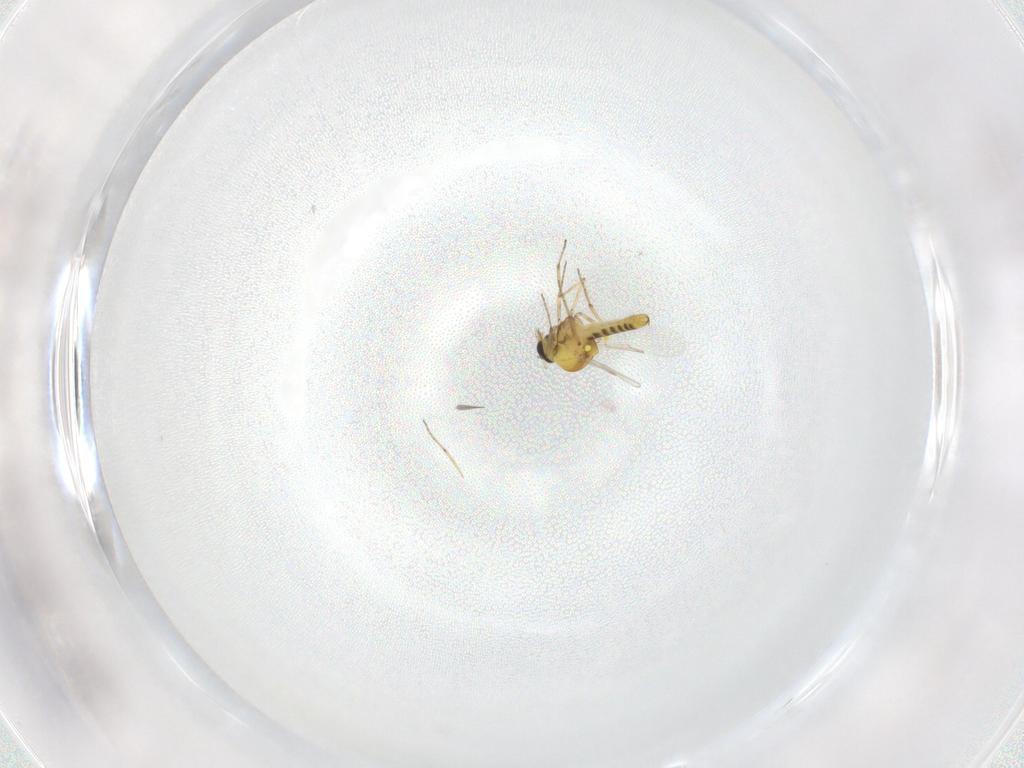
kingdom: Animalia
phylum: Arthropoda
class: Insecta
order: Diptera
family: Ceratopogonidae
